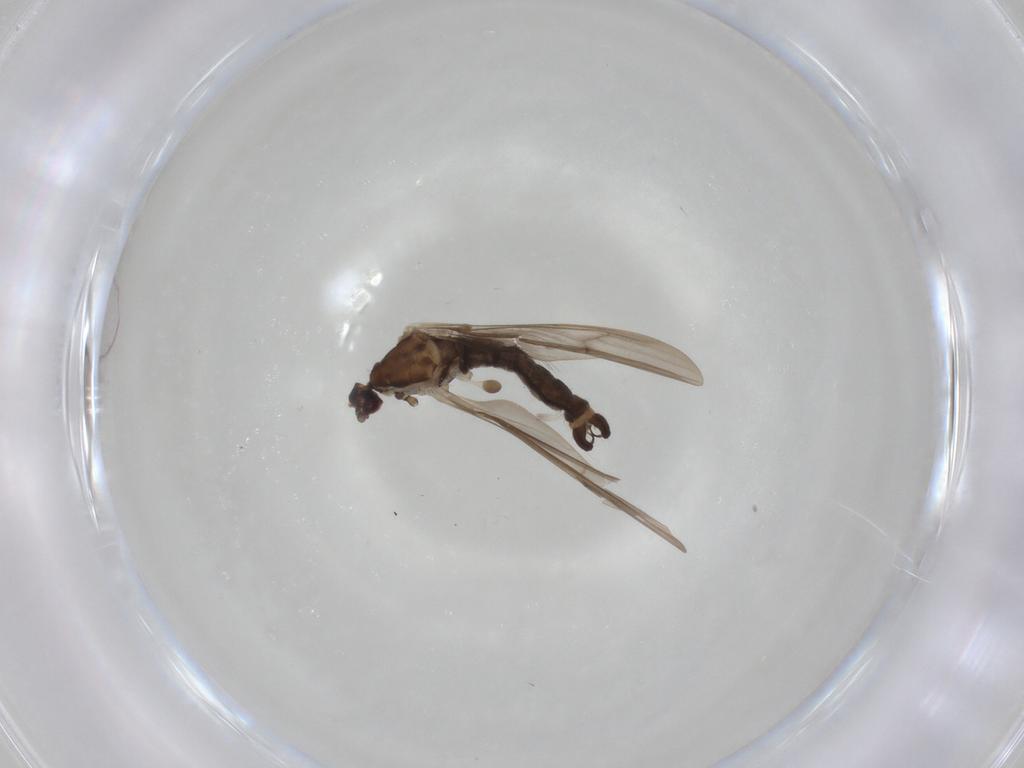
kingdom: Animalia
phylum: Arthropoda
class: Insecta
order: Diptera
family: Limoniidae
